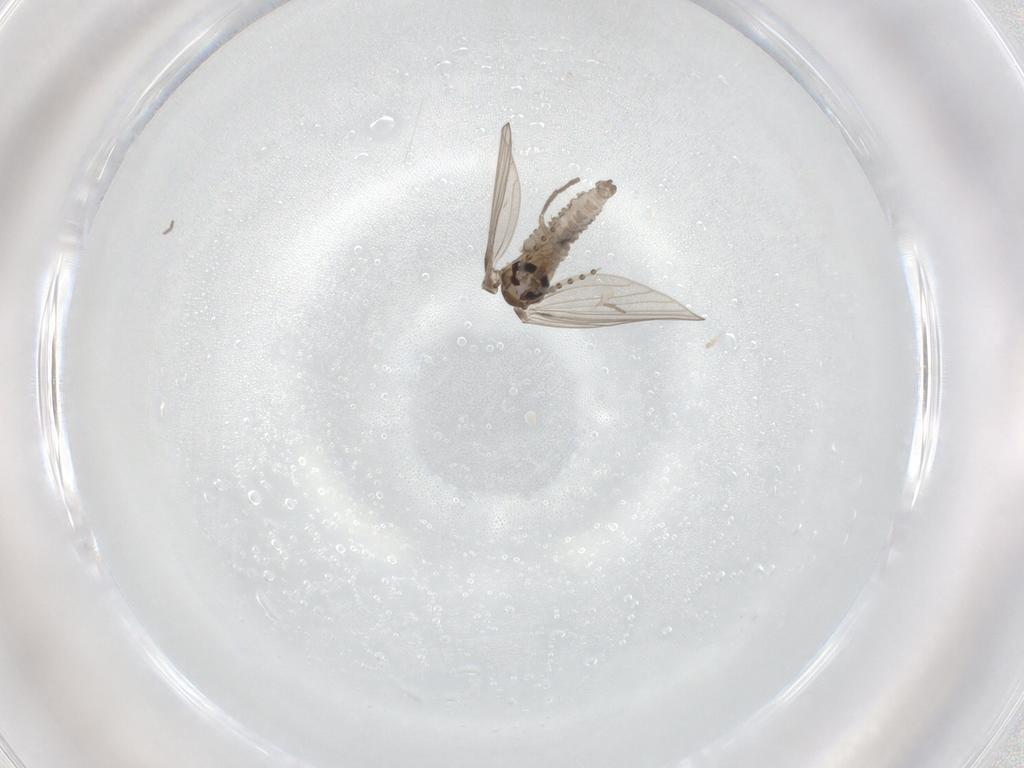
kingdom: Animalia
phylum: Arthropoda
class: Insecta
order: Diptera
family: Psychodidae
